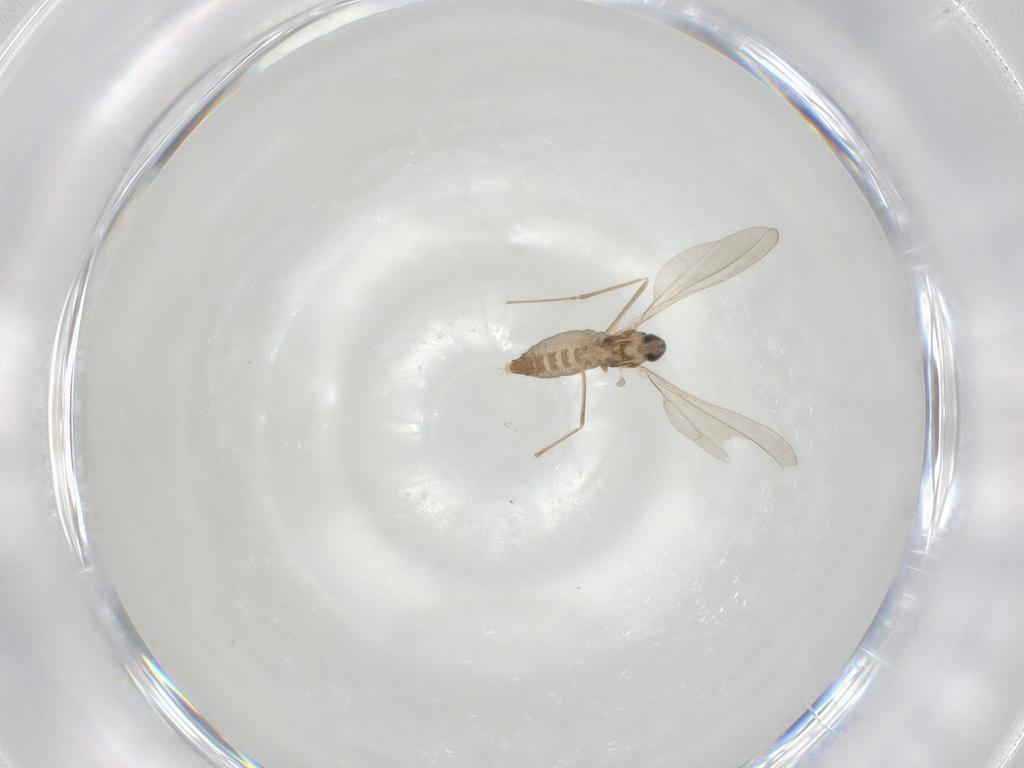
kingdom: Animalia
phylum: Arthropoda
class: Insecta
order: Diptera
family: Cecidomyiidae
